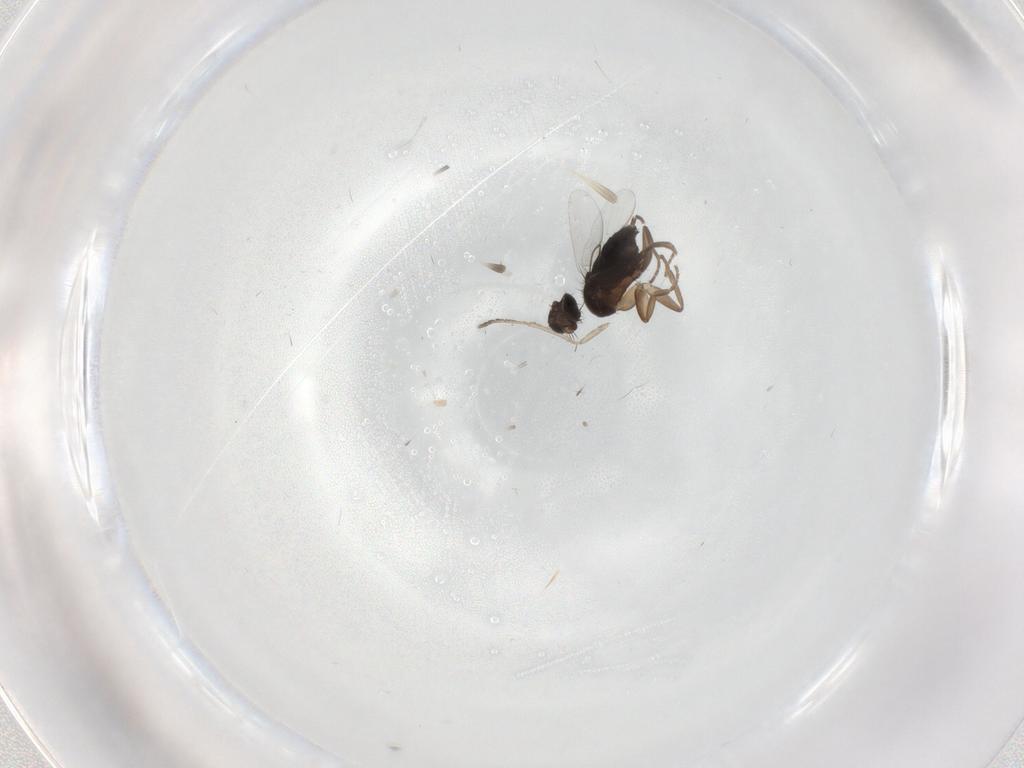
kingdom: Animalia
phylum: Arthropoda
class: Insecta
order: Diptera
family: Phoridae
